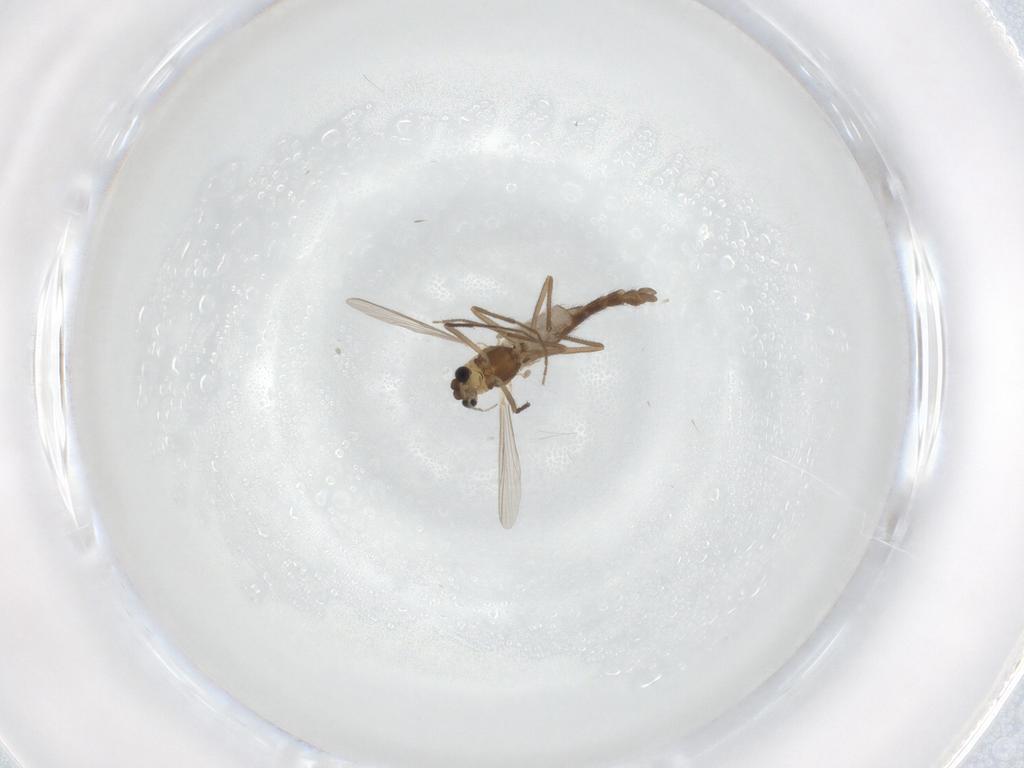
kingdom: Animalia
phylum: Arthropoda
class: Insecta
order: Diptera
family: Chironomidae
